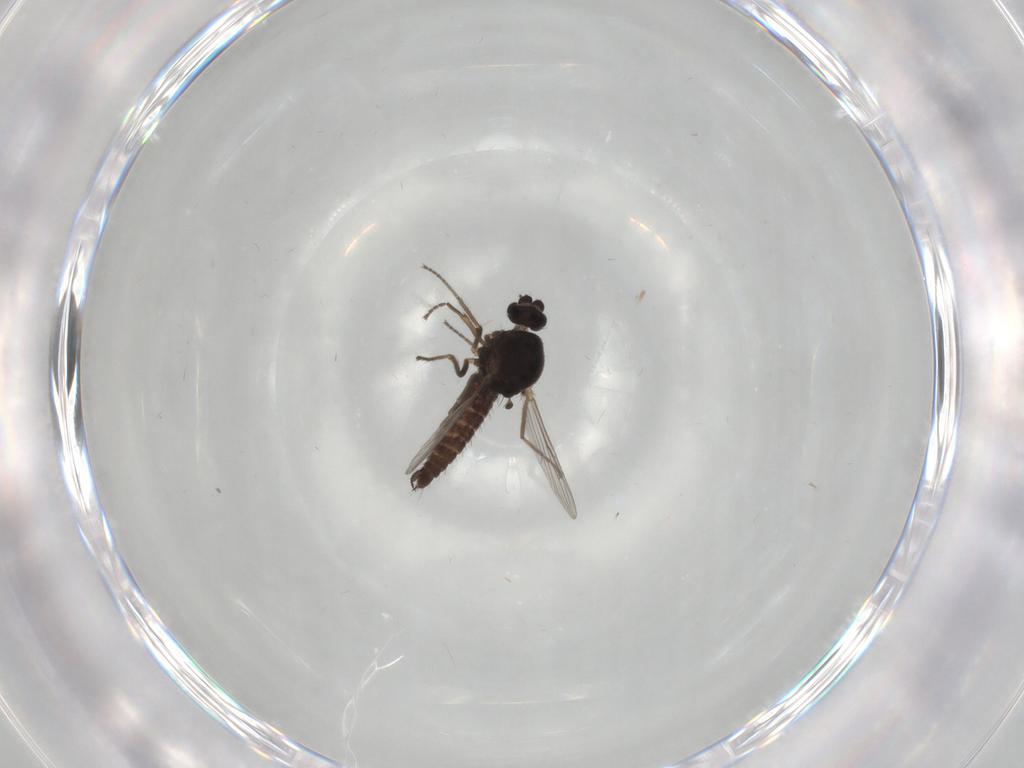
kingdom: Animalia
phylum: Arthropoda
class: Insecta
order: Diptera
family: Ceratopogonidae
